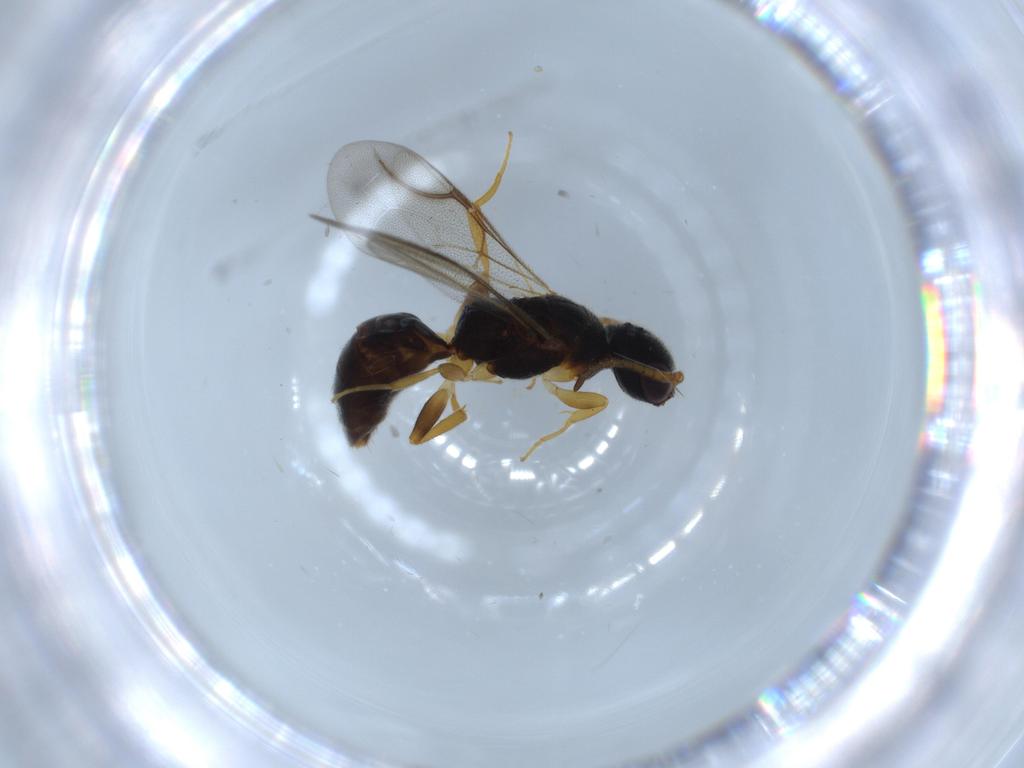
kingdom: Animalia
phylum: Arthropoda
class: Insecta
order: Hymenoptera
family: Bethylidae
